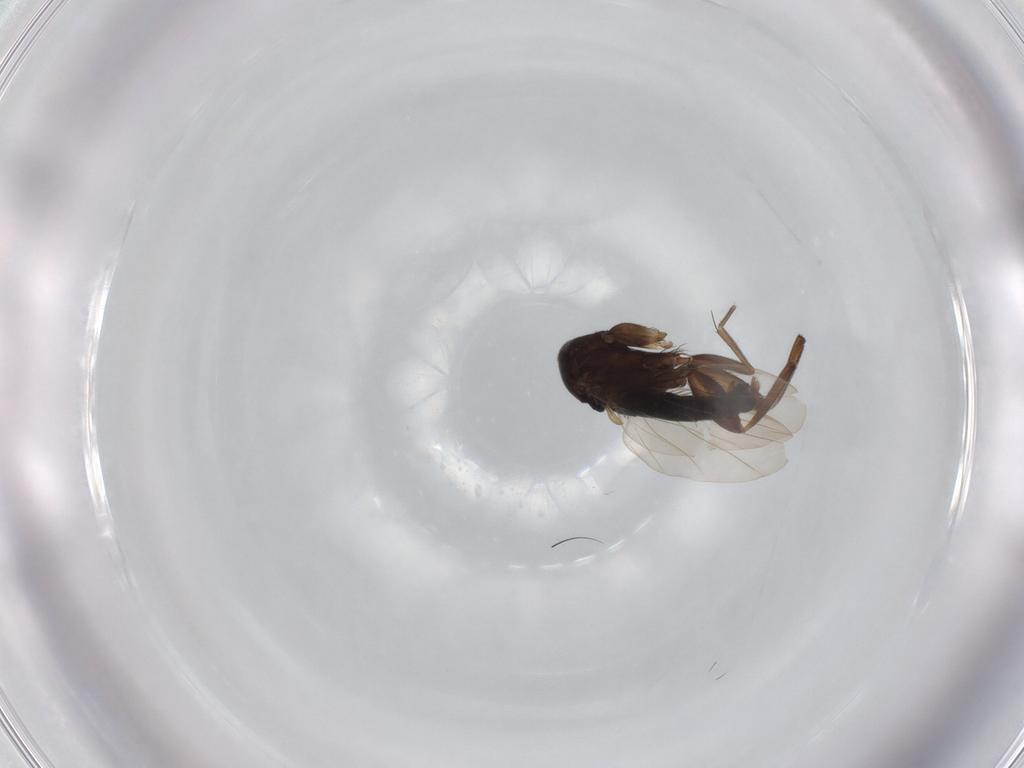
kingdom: Animalia
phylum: Arthropoda
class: Insecta
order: Diptera
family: Phoridae
